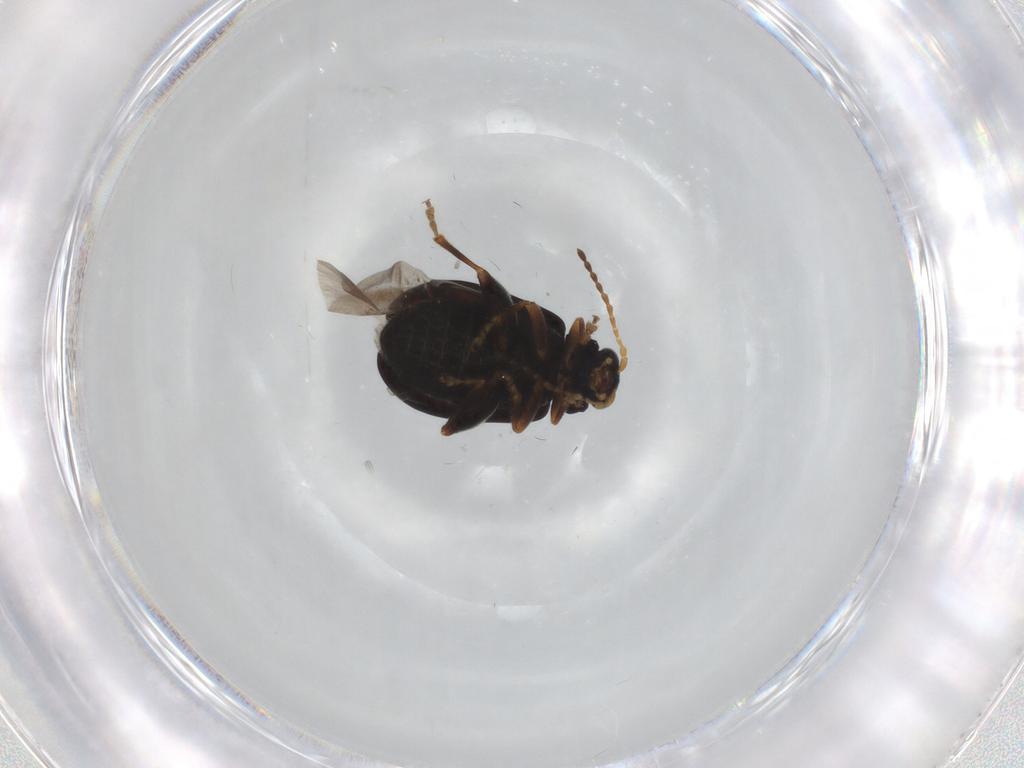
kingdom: Animalia
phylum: Arthropoda
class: Insecta
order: Coleoptera
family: Chrysomelidae
